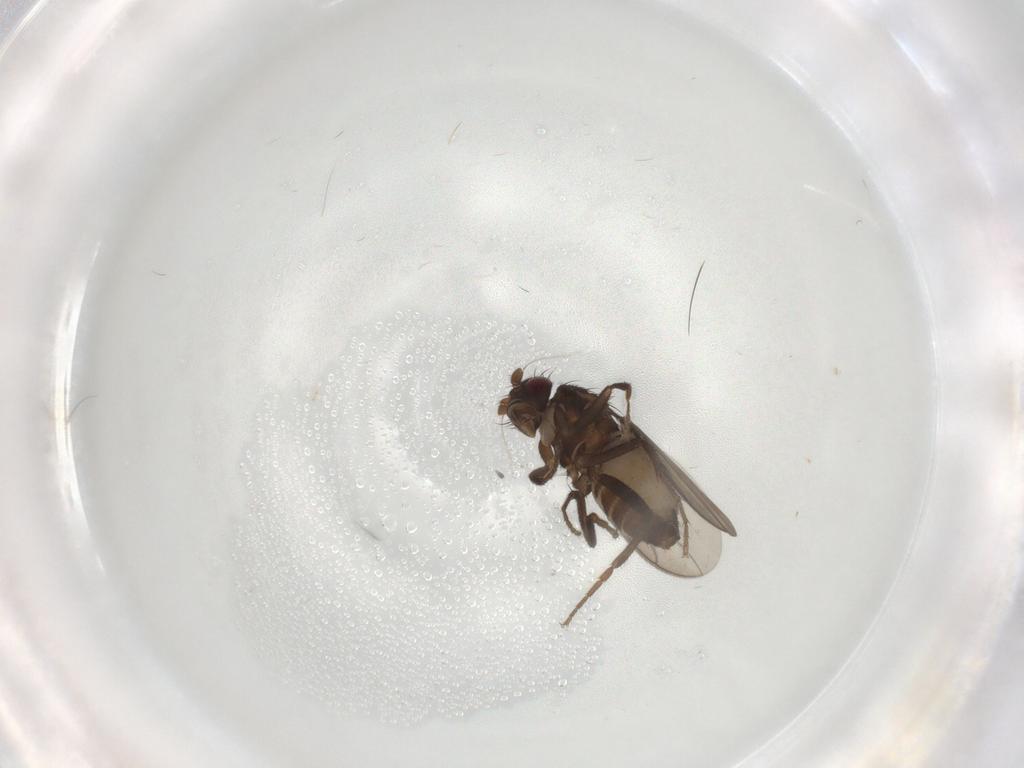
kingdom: Animalia
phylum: Arthropoda
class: Insecta
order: Diptera
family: Sphaeroceridae
